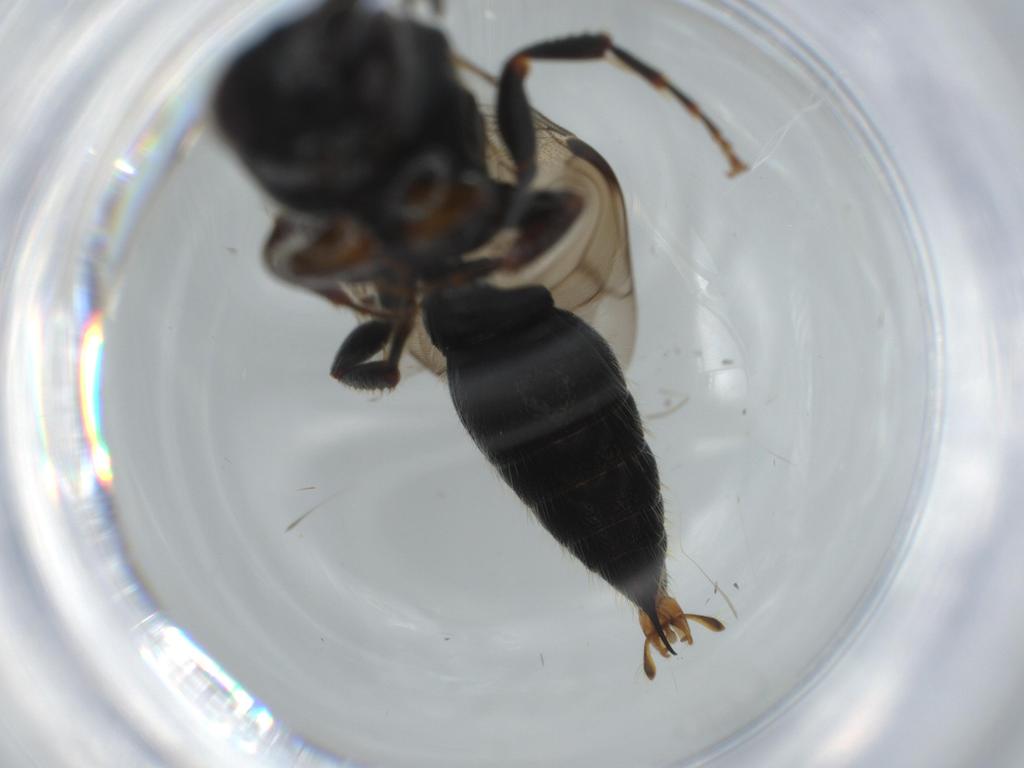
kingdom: Animalia
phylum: Arthropoda
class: Insecta
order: Hymenoptera
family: Tiphiidae
